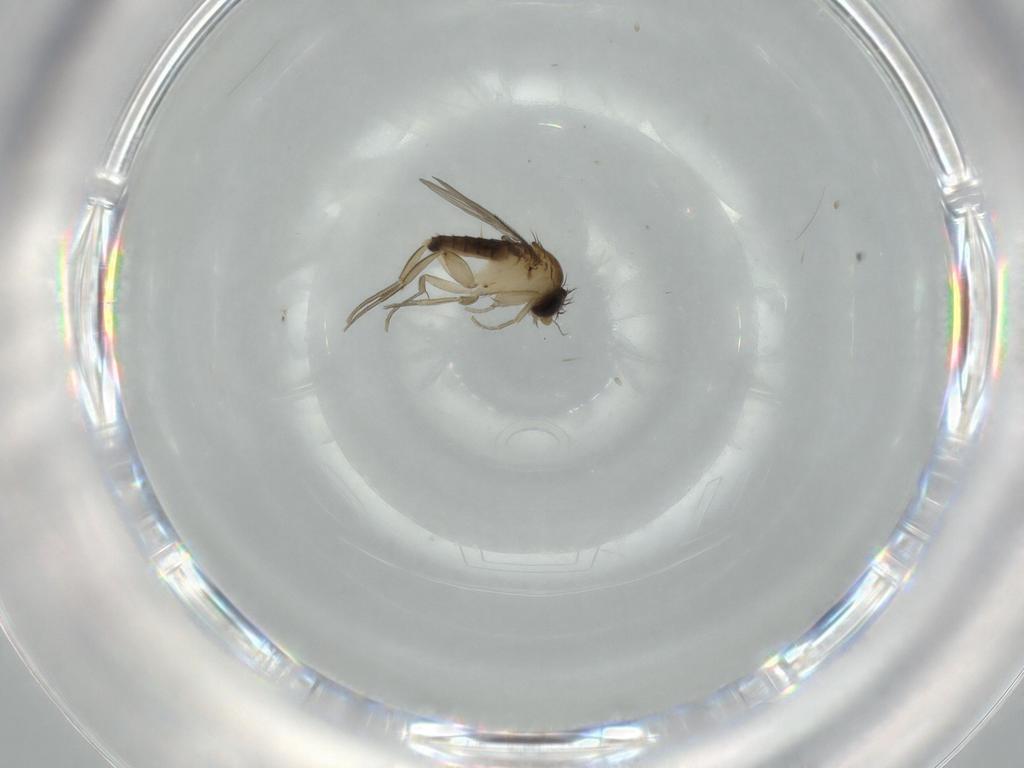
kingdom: Animalia
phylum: Arthropoda
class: Insecta
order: Diptera
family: Phoridae
